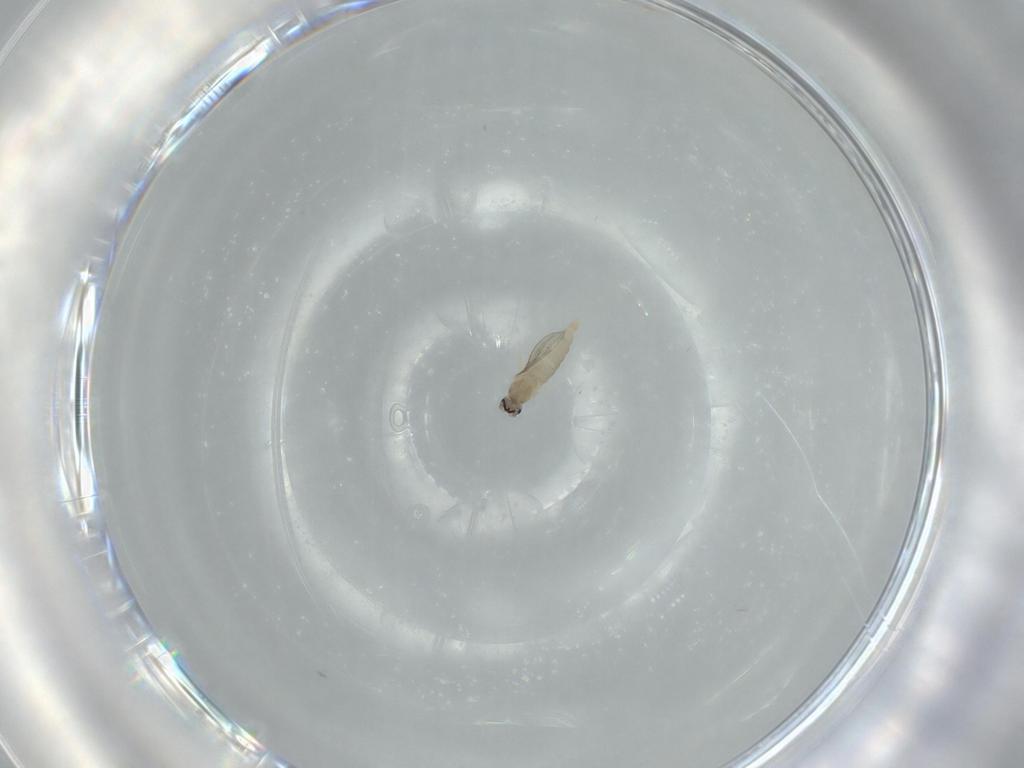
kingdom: Animalia
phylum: Arthropoda
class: Insecta
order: Diptera
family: Cecidomyiidae
